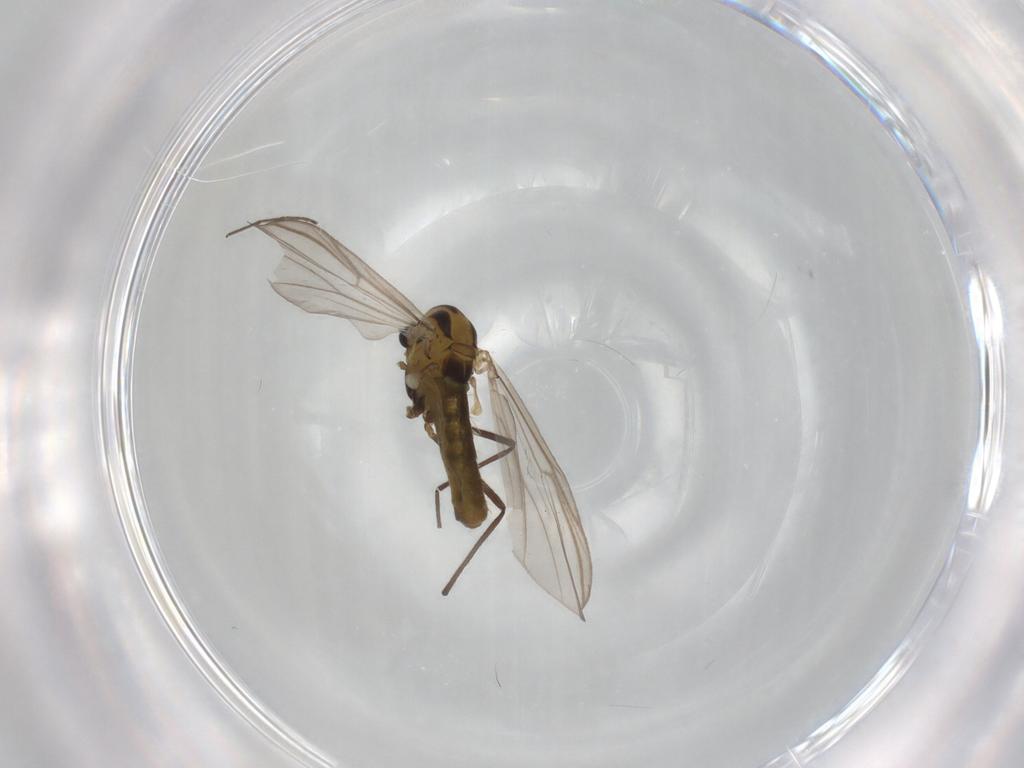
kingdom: Animalia
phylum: Arthropoda
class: Insecta
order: Diptera
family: Chironomidae
